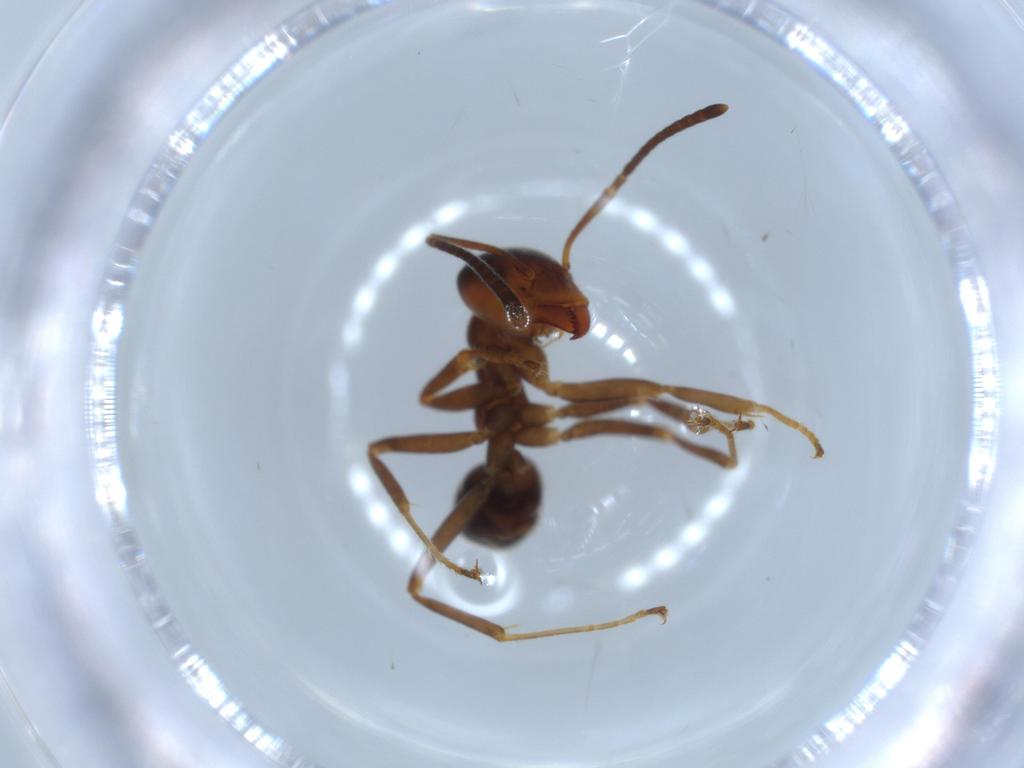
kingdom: Animalia
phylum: Arthropoda
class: Insecta
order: Hymenoptera
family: Formicidae
